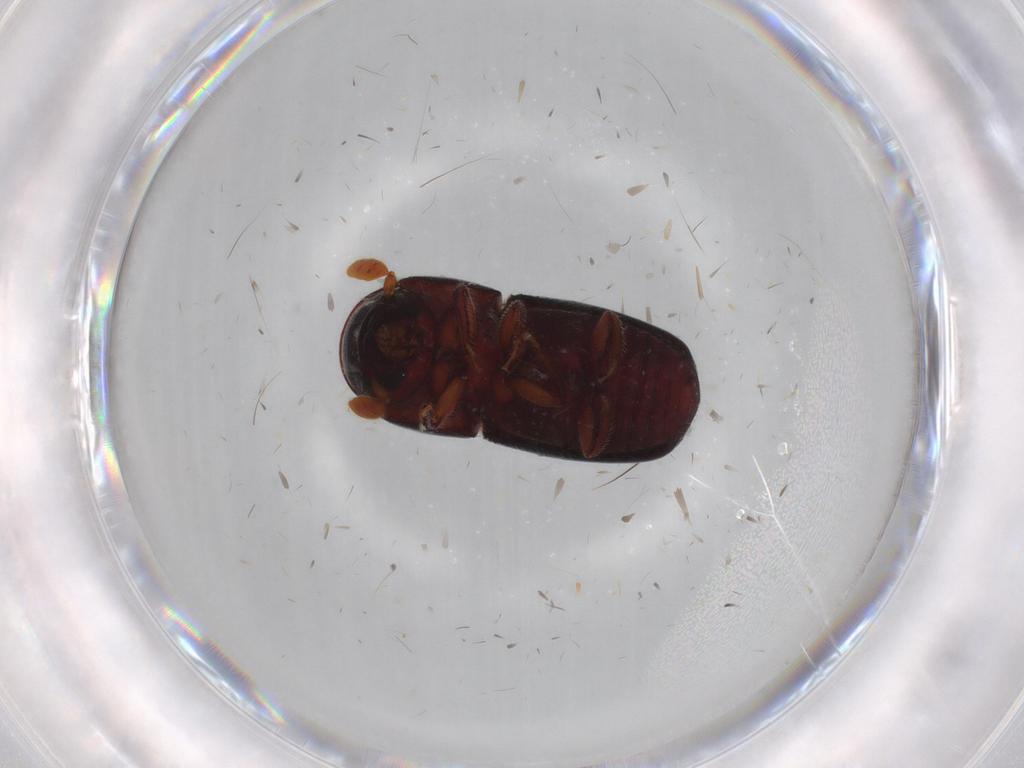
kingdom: Animalia
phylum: Arthropoda
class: Insecta
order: Coleoptera
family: Curculionidae
